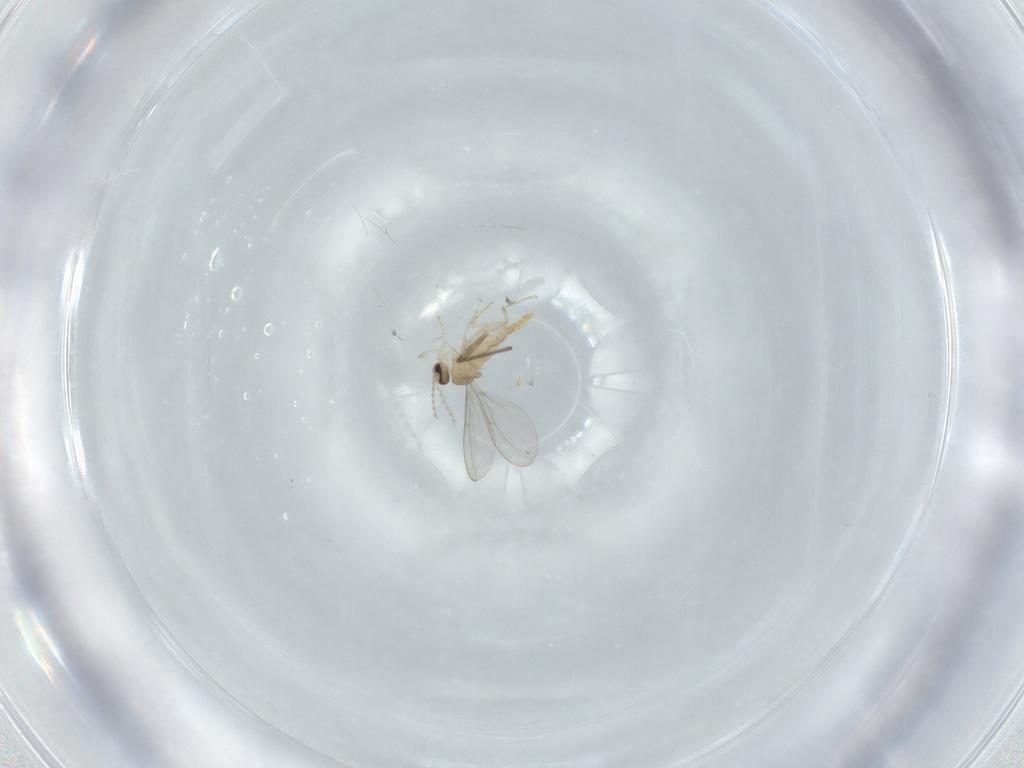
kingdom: Animalia
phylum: Arthropoda
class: Insecta
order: Diptera
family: Cecidomyiidae
